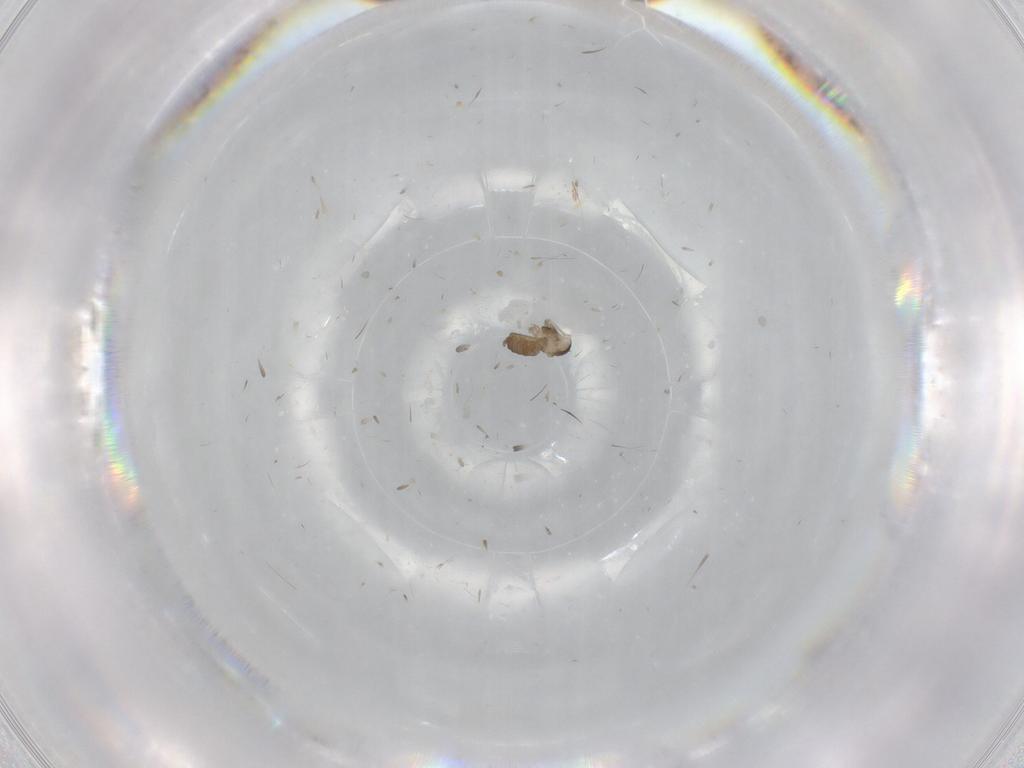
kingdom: Animalia
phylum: Arthropoda
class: Insecta
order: Diptera
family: Cecidomyiidae
